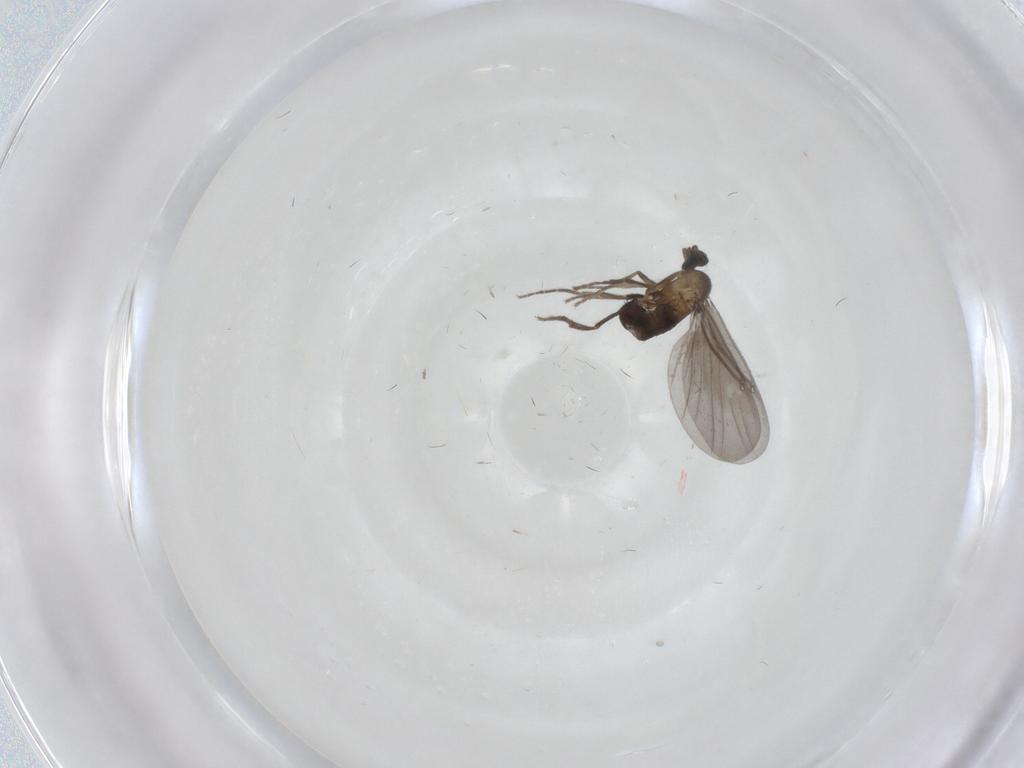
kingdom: Animalia
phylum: Arthropoda
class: Insecta
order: Diptera
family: Phoridae
